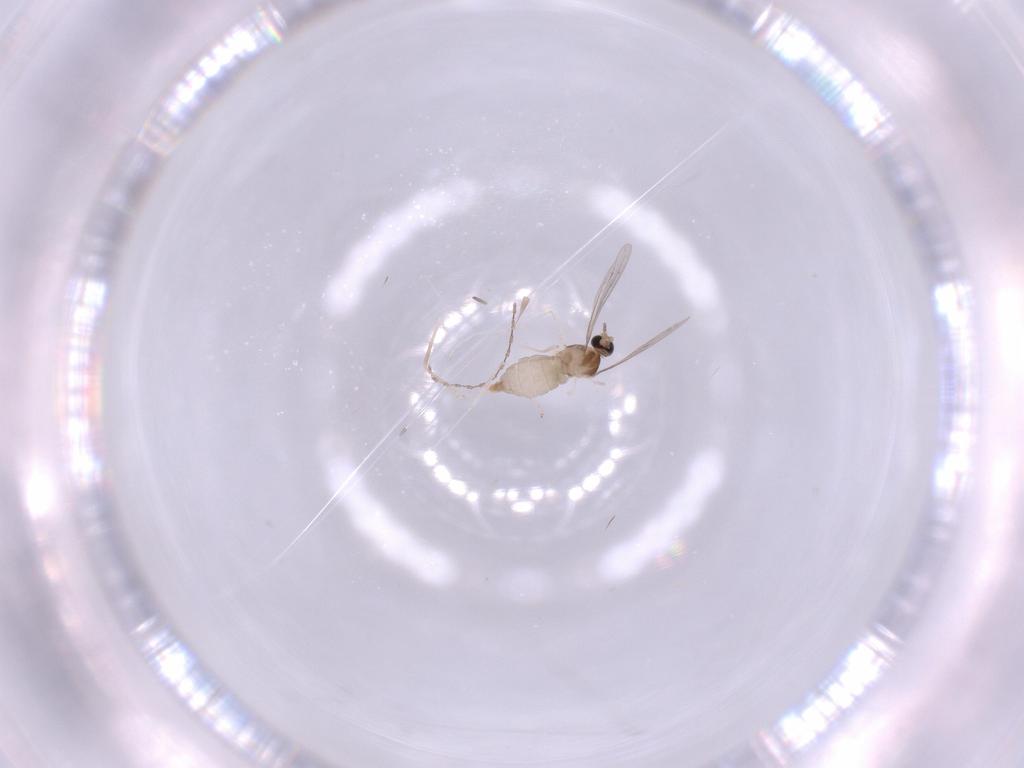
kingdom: Animalia
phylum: Arthropoda
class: Insecta
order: Diptera
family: Cecidomyiidae
